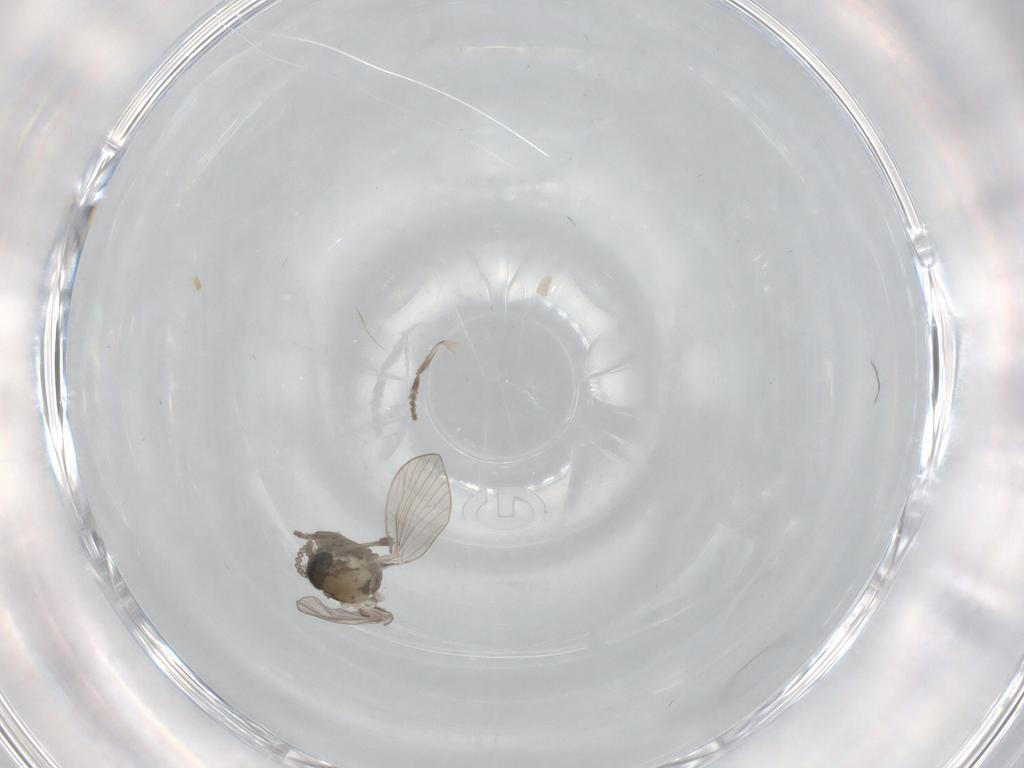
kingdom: Animalia
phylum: Arthropoda
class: Insecta
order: Diptera
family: Psychodidae
